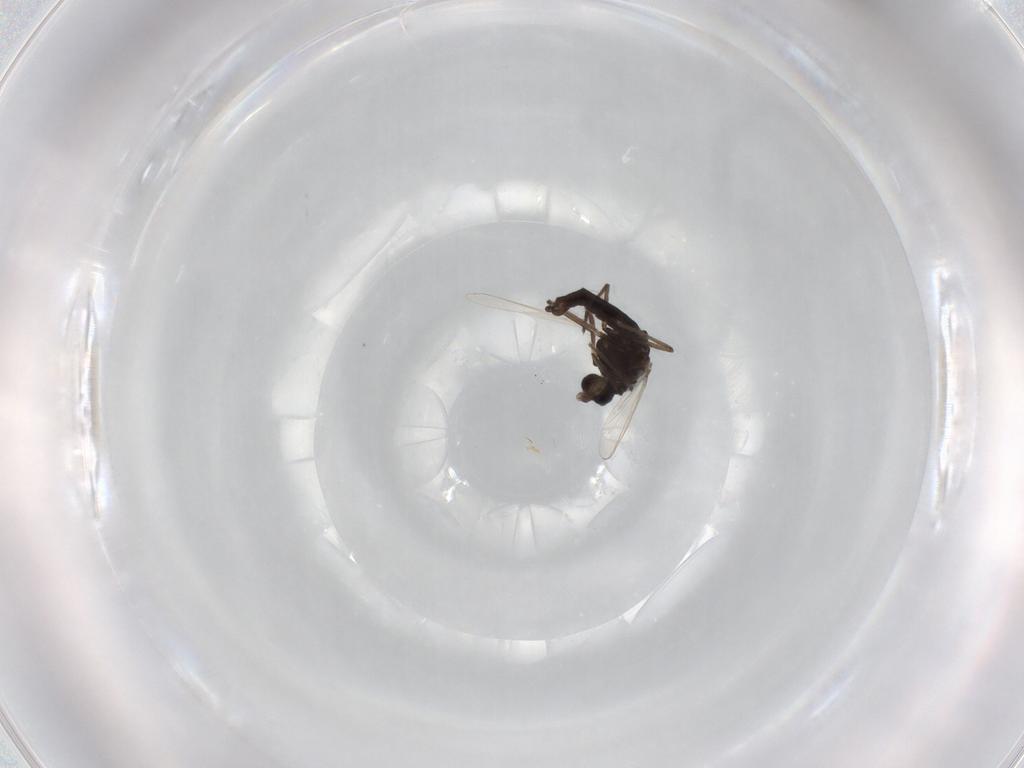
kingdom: Animalia
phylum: Arthropoda
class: Insecta
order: Diptera
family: Chironomidae
